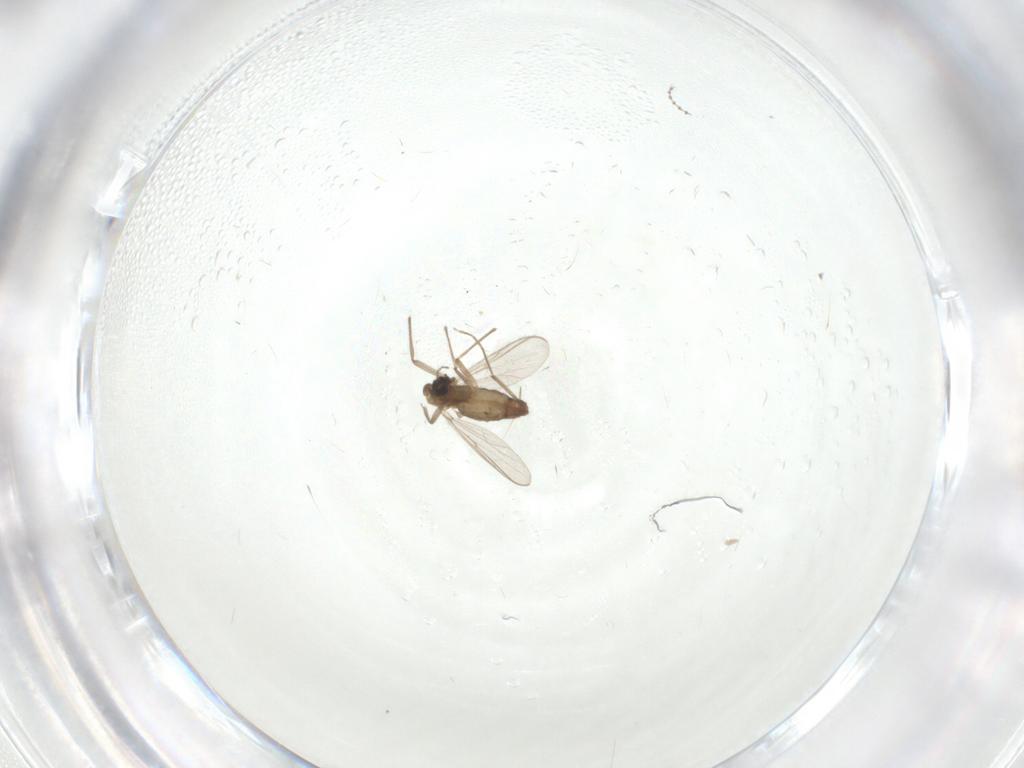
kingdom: Animalia
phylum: Arthropoda
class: Insecta
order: Diptera
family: Chironomidae
